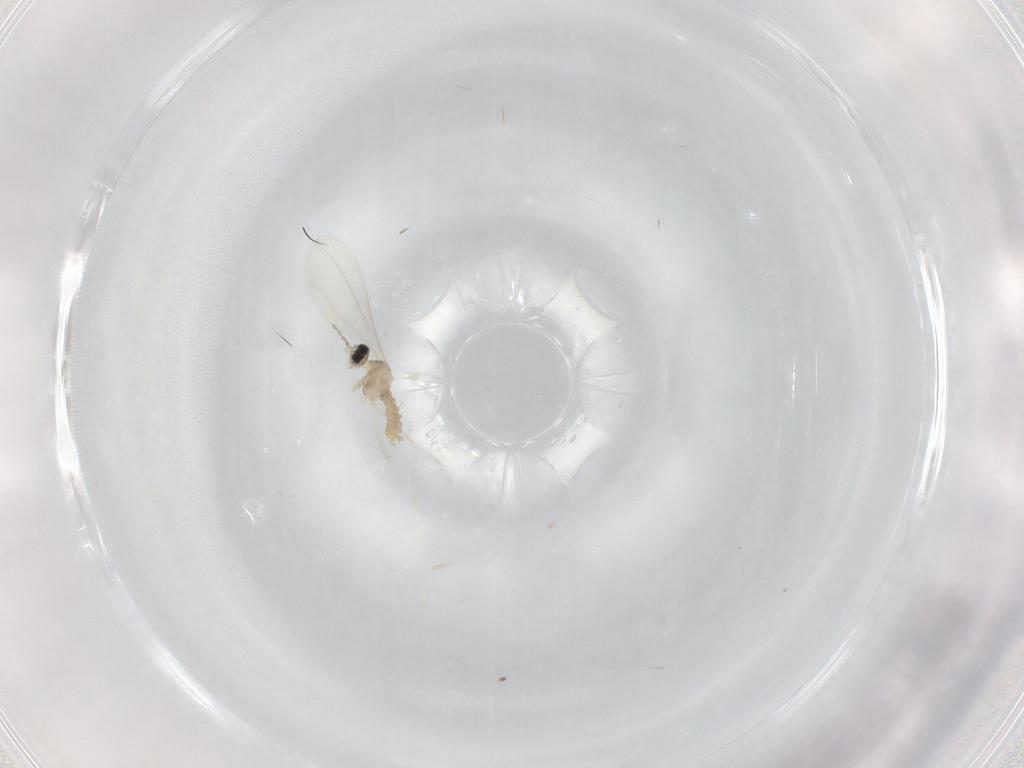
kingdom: Animalia
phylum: Arthropoda
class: Insecta
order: Diptera
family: Cecidomyiidae
